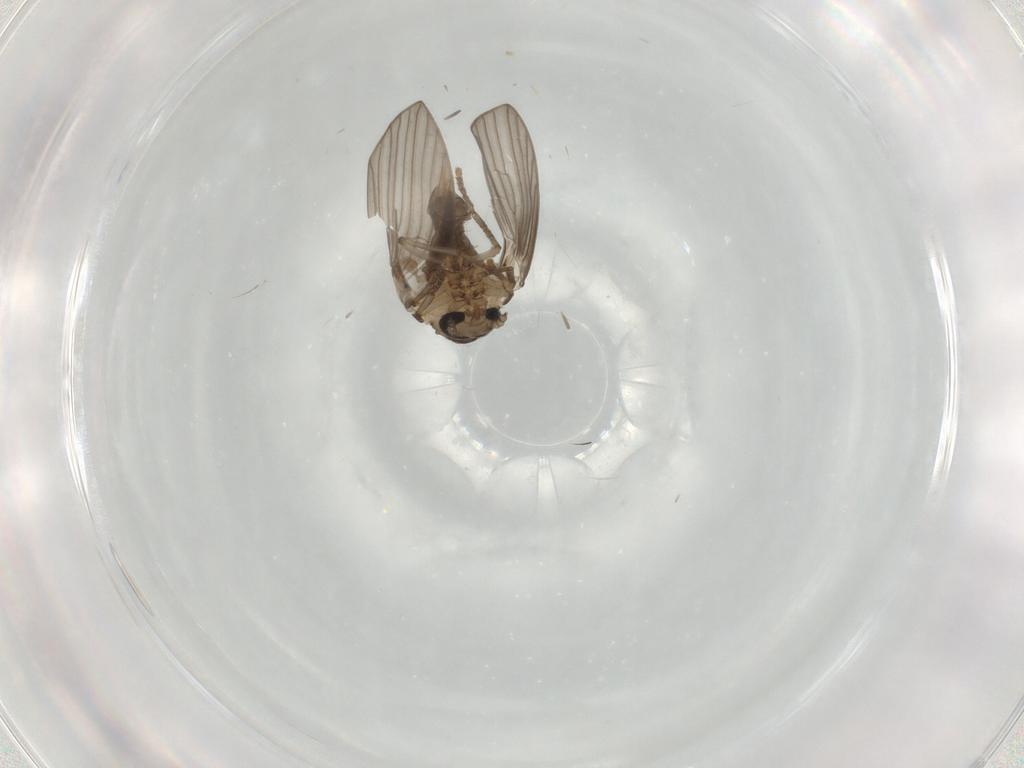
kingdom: Animalia
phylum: Arthropoda
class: Insecta
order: Diptera
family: Psychodidae
